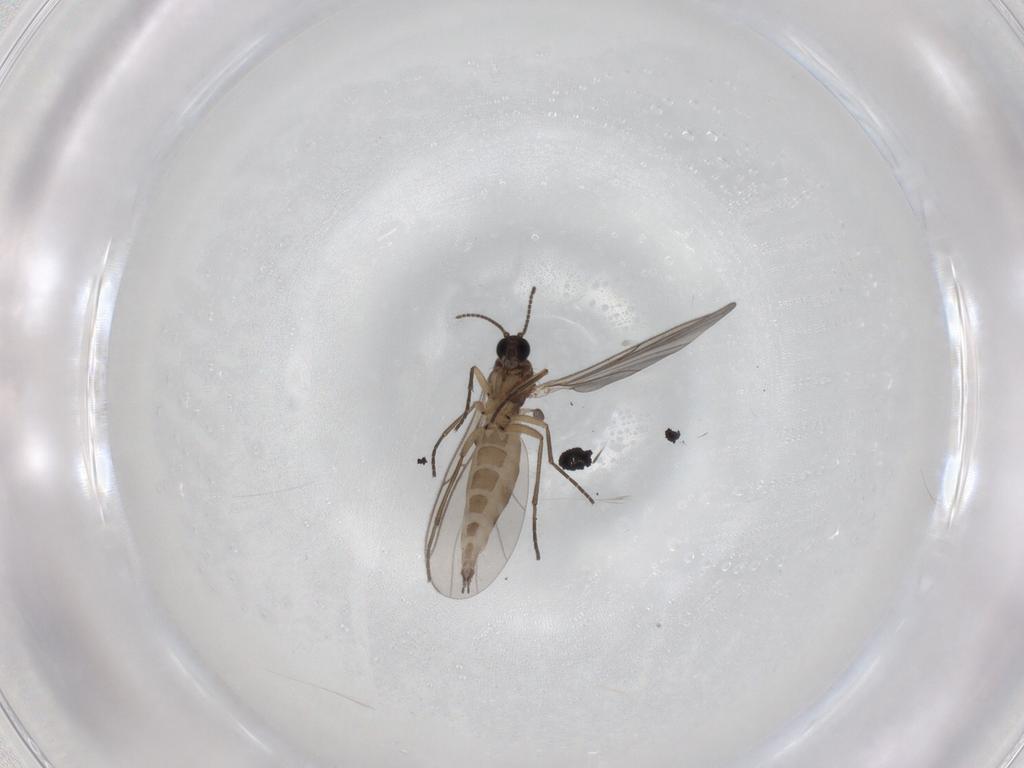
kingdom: Animalia
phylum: Arthropoda
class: Insecta
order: Diptera
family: Sciaridae
